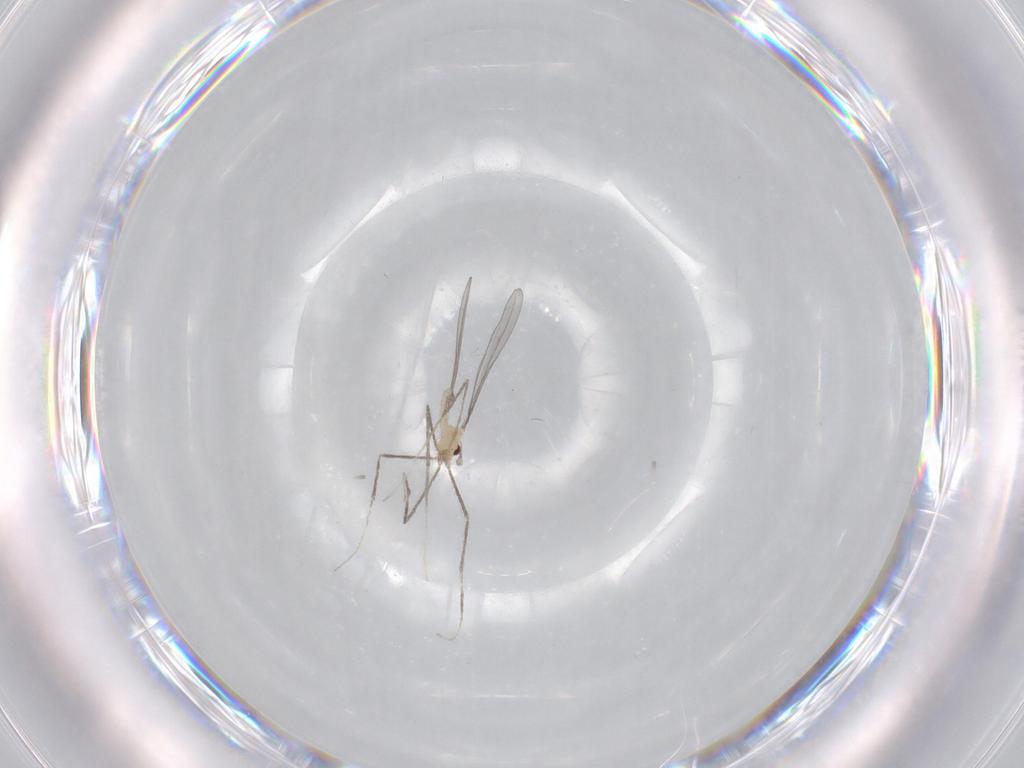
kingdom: Animalia
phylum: Arthropoda
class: Insecta
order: Diptera
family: Cecidomyiidae
